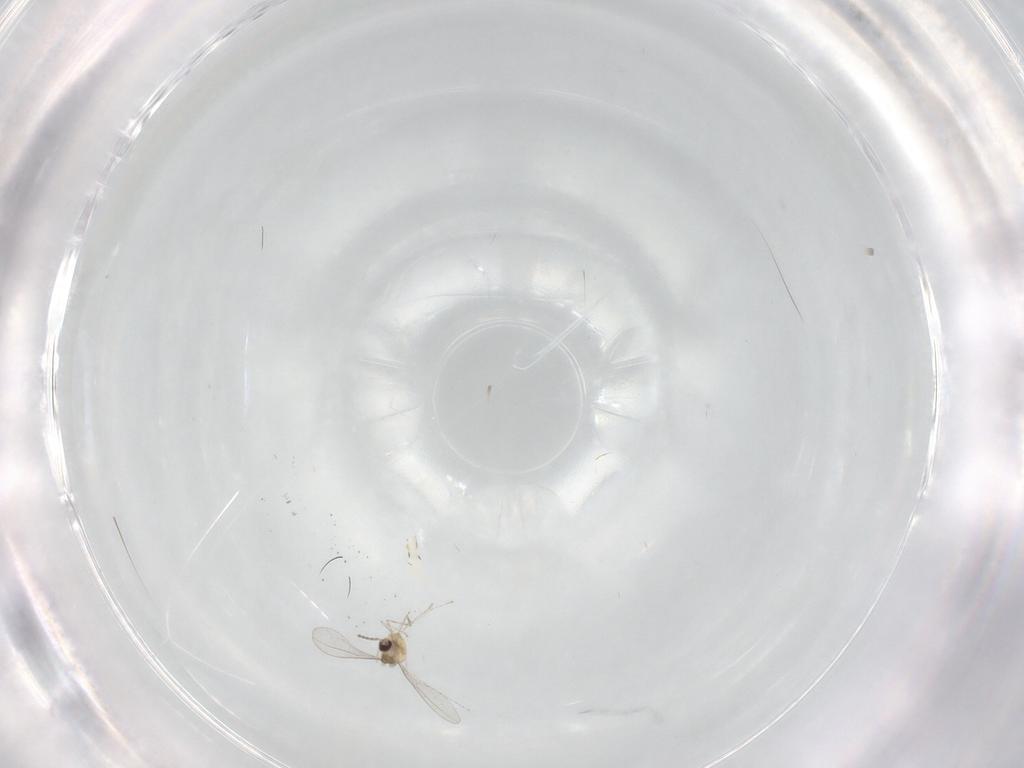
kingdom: Animalia
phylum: Arthropoda
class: Insecta
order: Diptera
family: Cecidomyiidae
